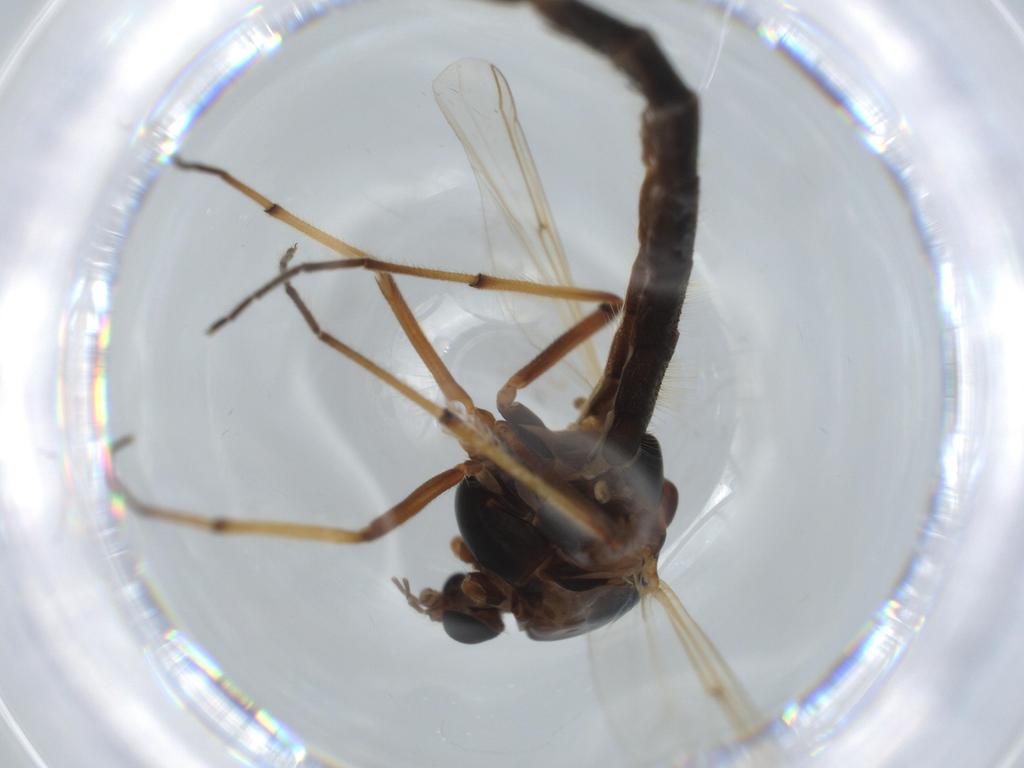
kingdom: Animalia
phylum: Arthropoda
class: Insecta
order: Diptera
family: Chironomidae
